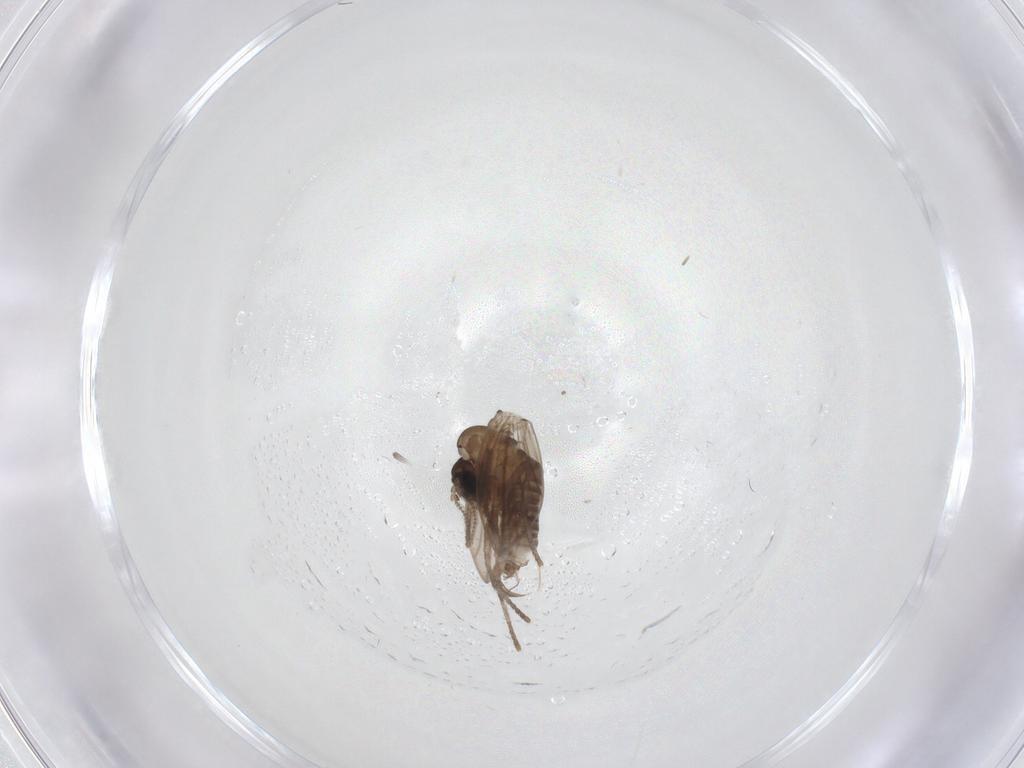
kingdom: Animalia
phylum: Arthropoda
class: Insecta
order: Diptera
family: Psychodidae
